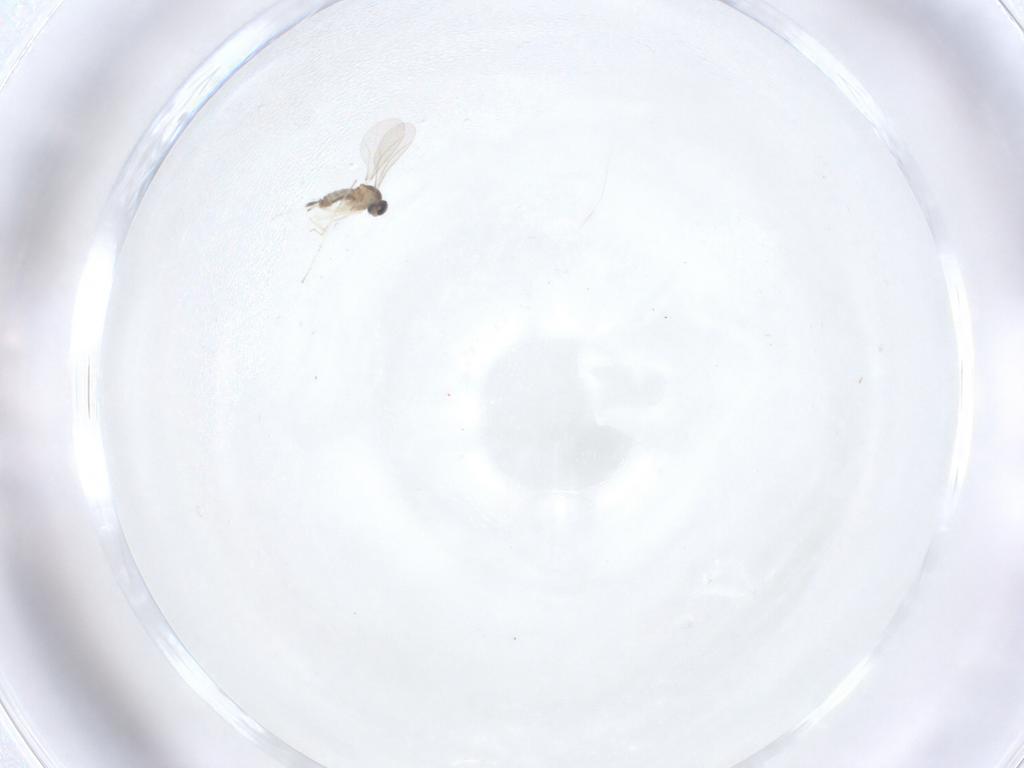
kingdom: Animalia
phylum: Arthropoda
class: Insecta
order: Diptera
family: Cecidomyiidae
